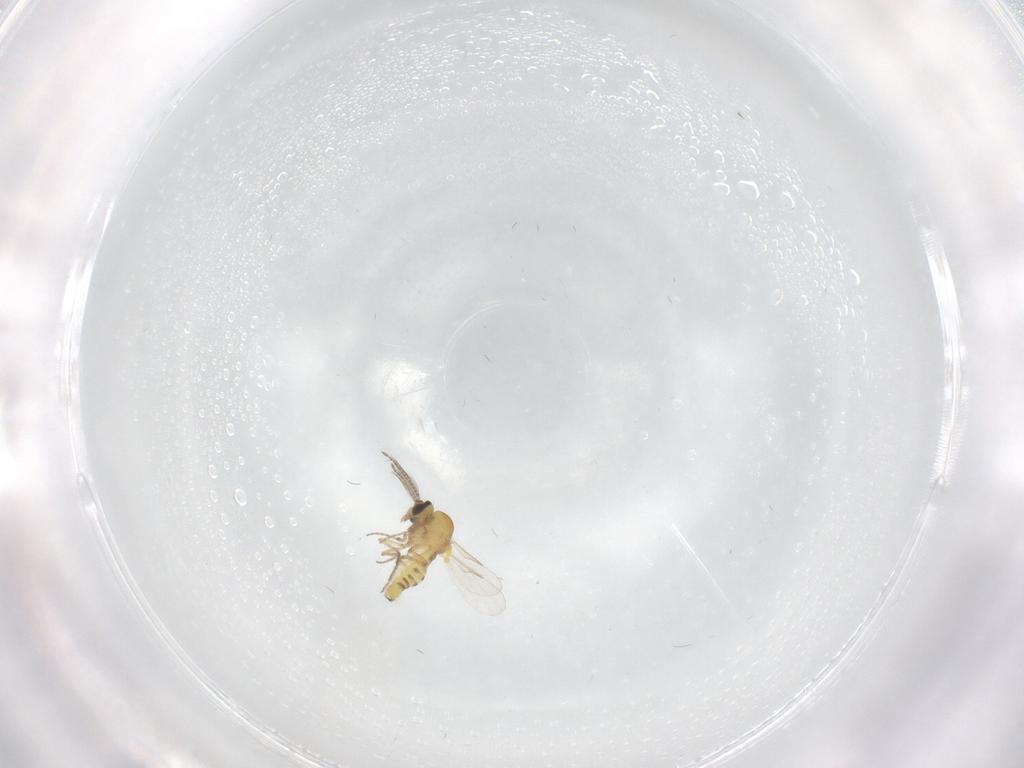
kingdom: Animalia
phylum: Arthropoda
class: Insecta
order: Diptera
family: Ceratopogonidae
